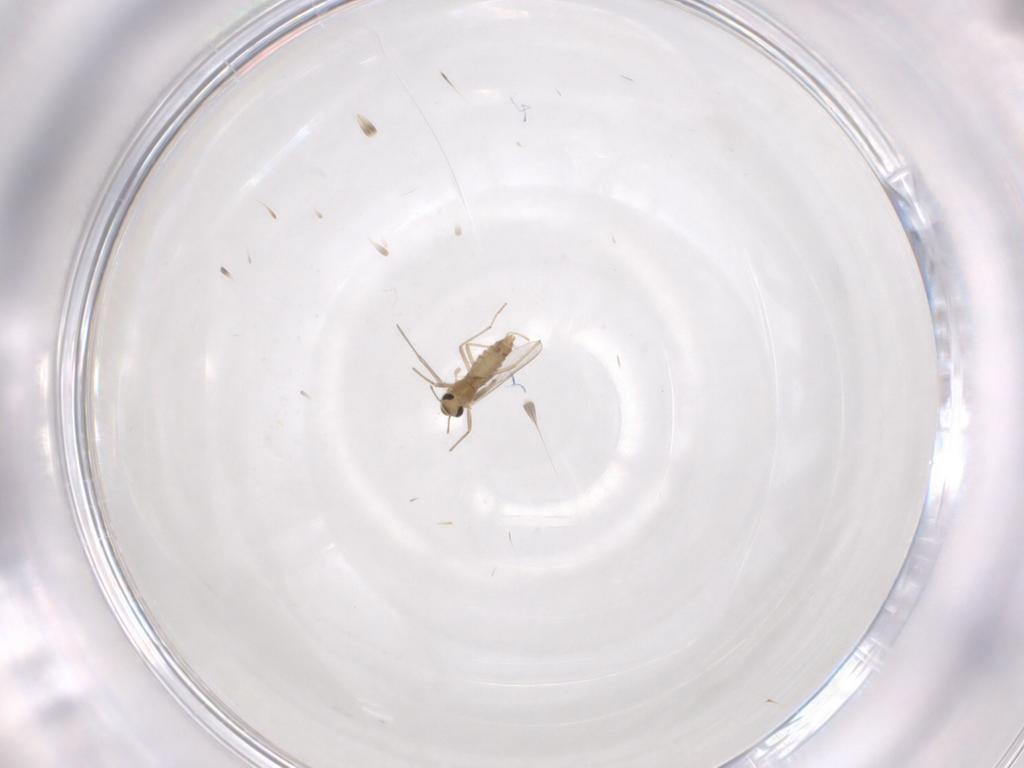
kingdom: Animalia
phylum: Arthropoda
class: Insecta
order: Diptera
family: Chironomidae
